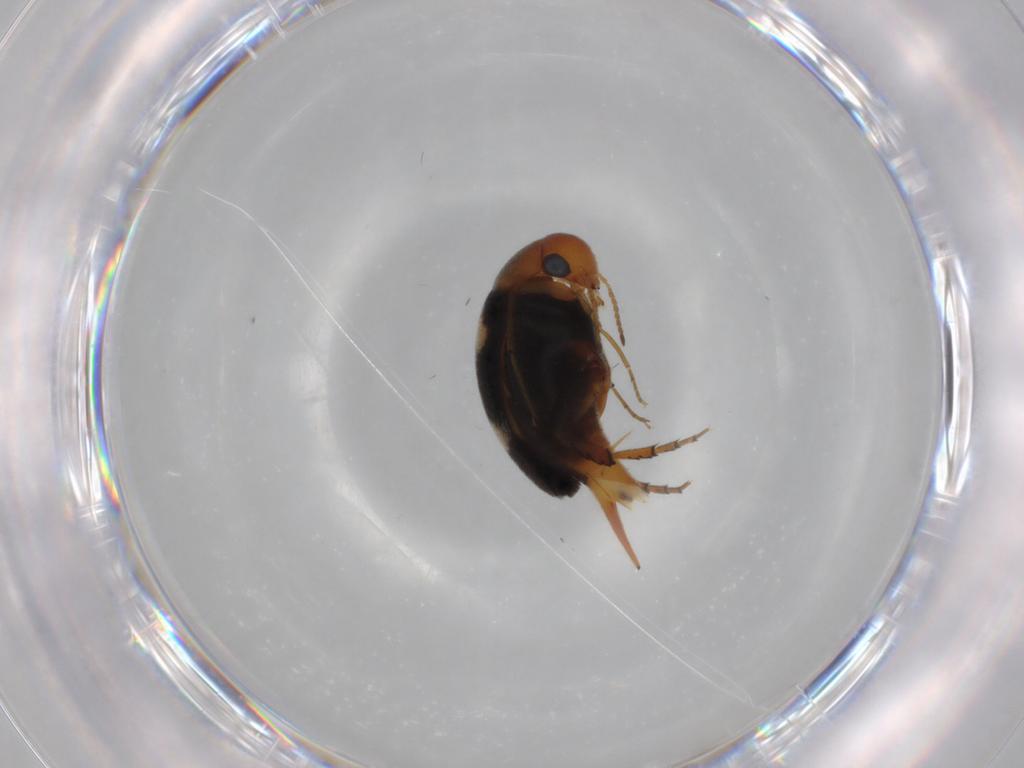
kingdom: Animalia
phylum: Arthropoda
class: Insecta
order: Coleoptera
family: Mordellidae
